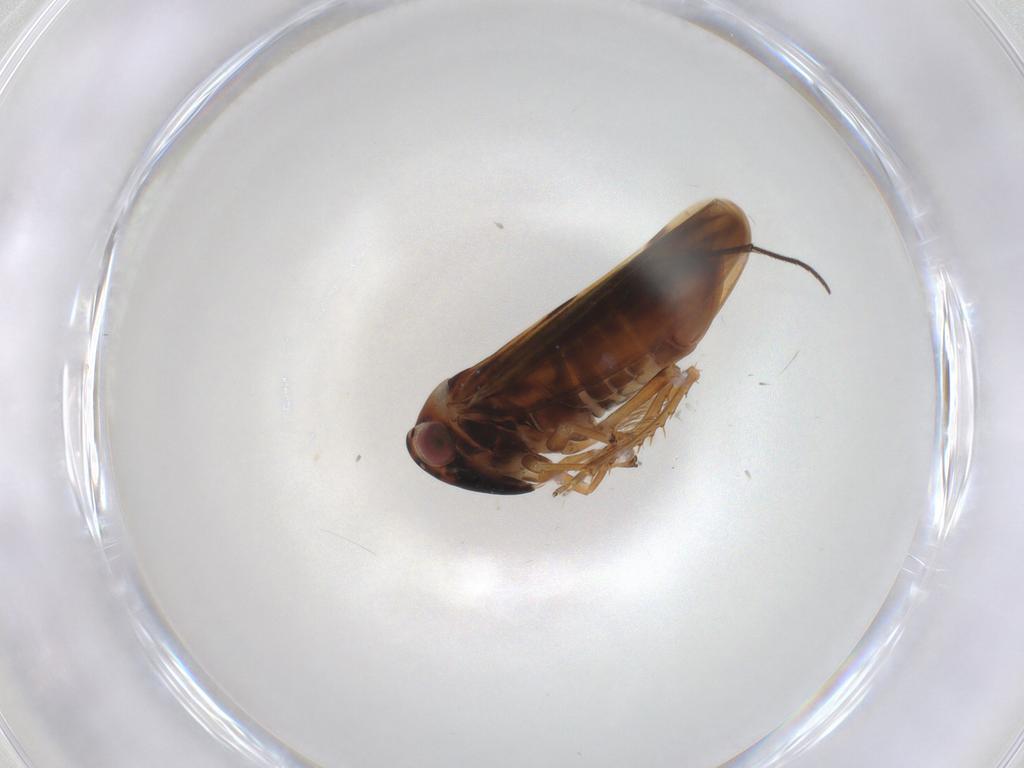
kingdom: Animalia
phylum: Arthropoda
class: Insecta
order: Hemiptera
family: Cicadellidae
